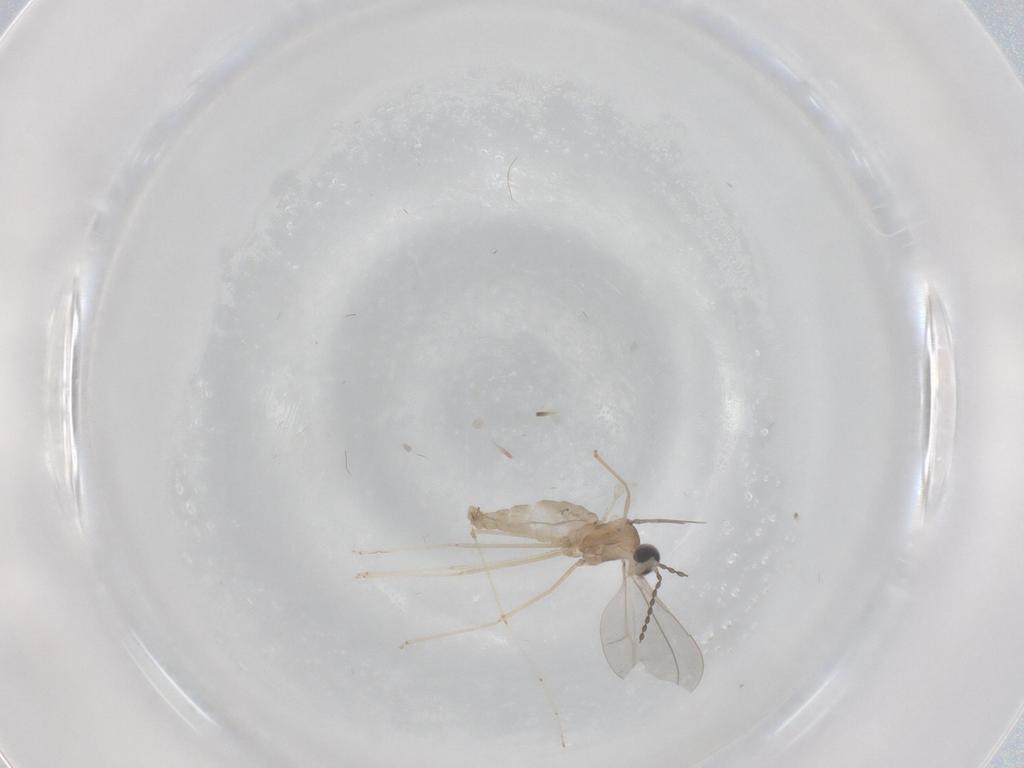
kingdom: Animalia
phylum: Arthropoda
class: Insecta
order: Diptera
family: Cecidomyiidae
